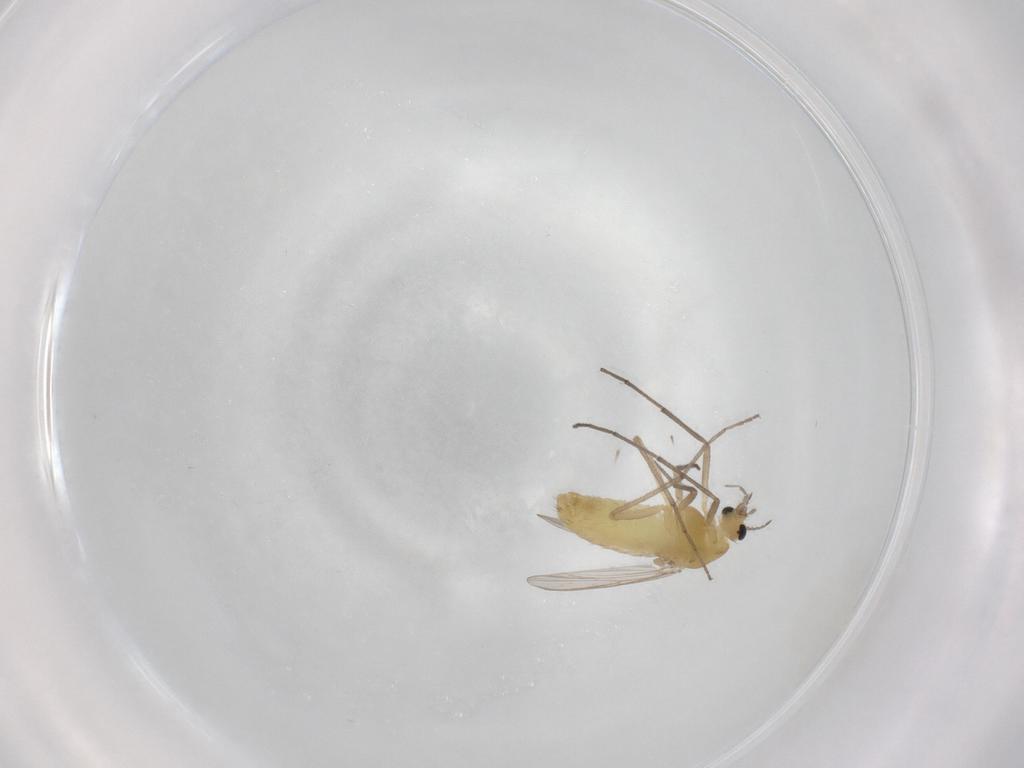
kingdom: Animalia
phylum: Arthropoda
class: Insecta
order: Diptera
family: Chironomidae
